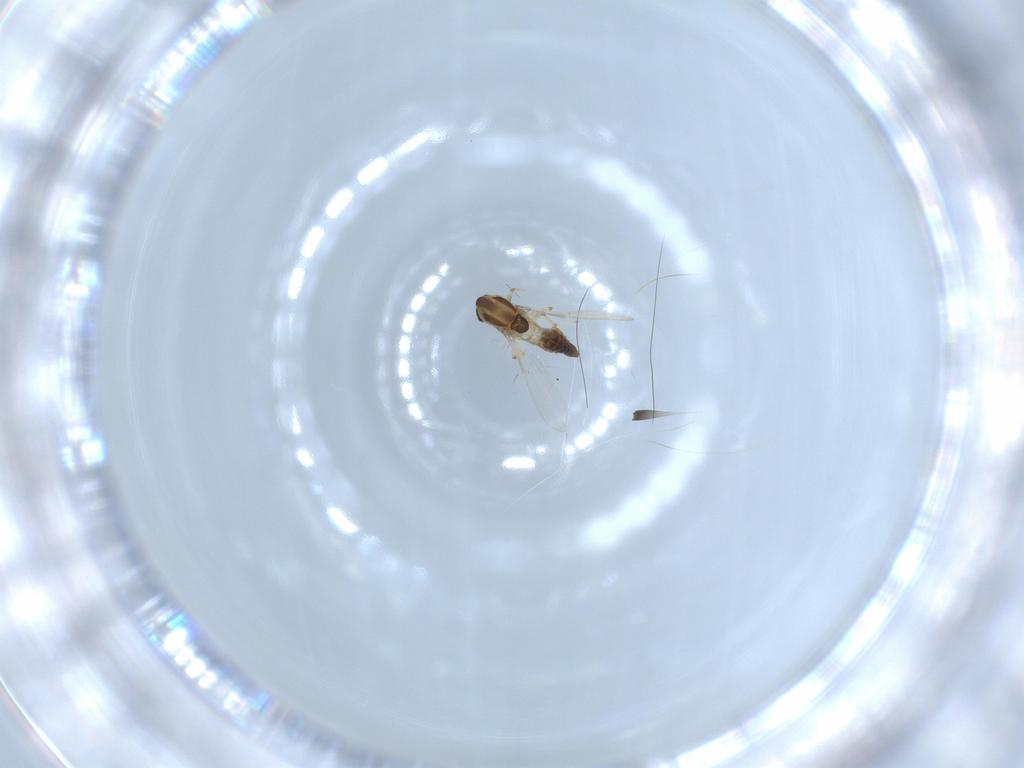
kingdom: Animalia
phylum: Arthropoda
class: Insecta
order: Diptera
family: Chironomidae
